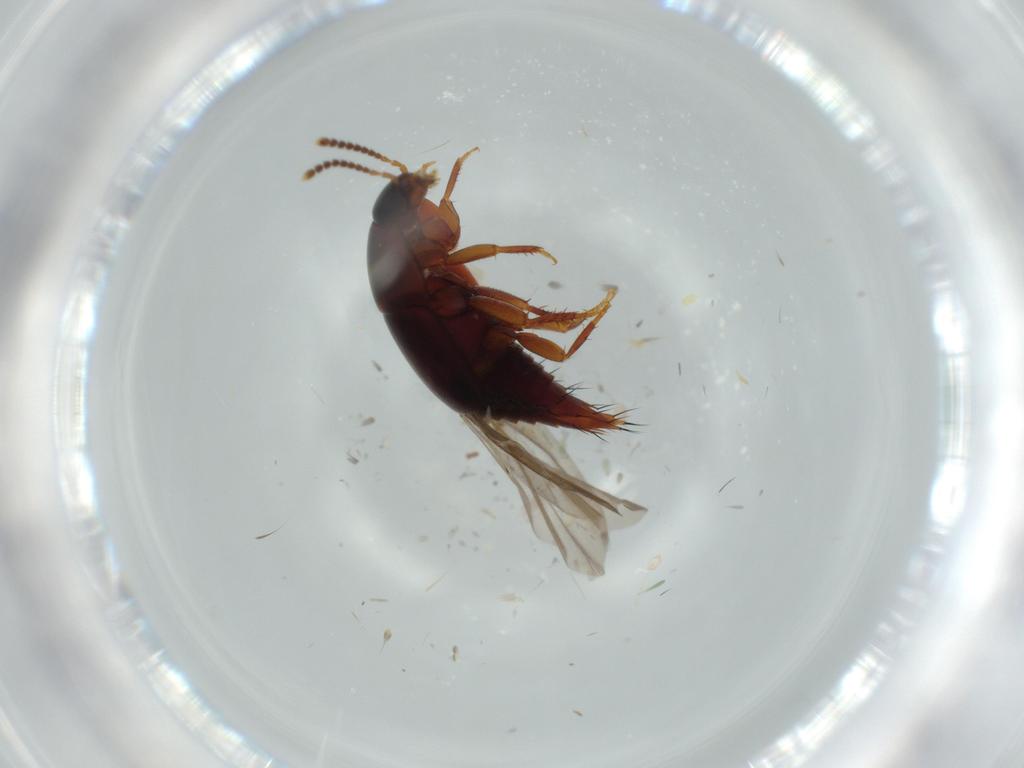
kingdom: Animalia
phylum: Arthropoda
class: Insecta
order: Coleoptera
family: Staphylinidae
